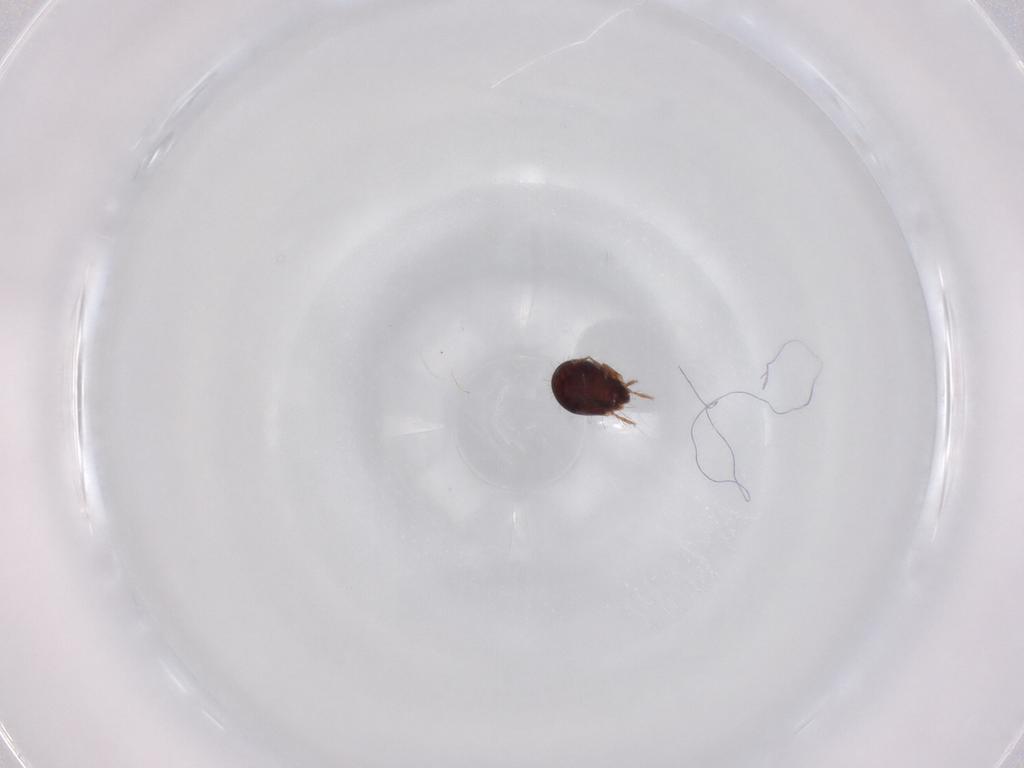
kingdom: Animalia
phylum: Arthropoda
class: Arachnida
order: Sarcoptiformes
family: Humerobatidae
